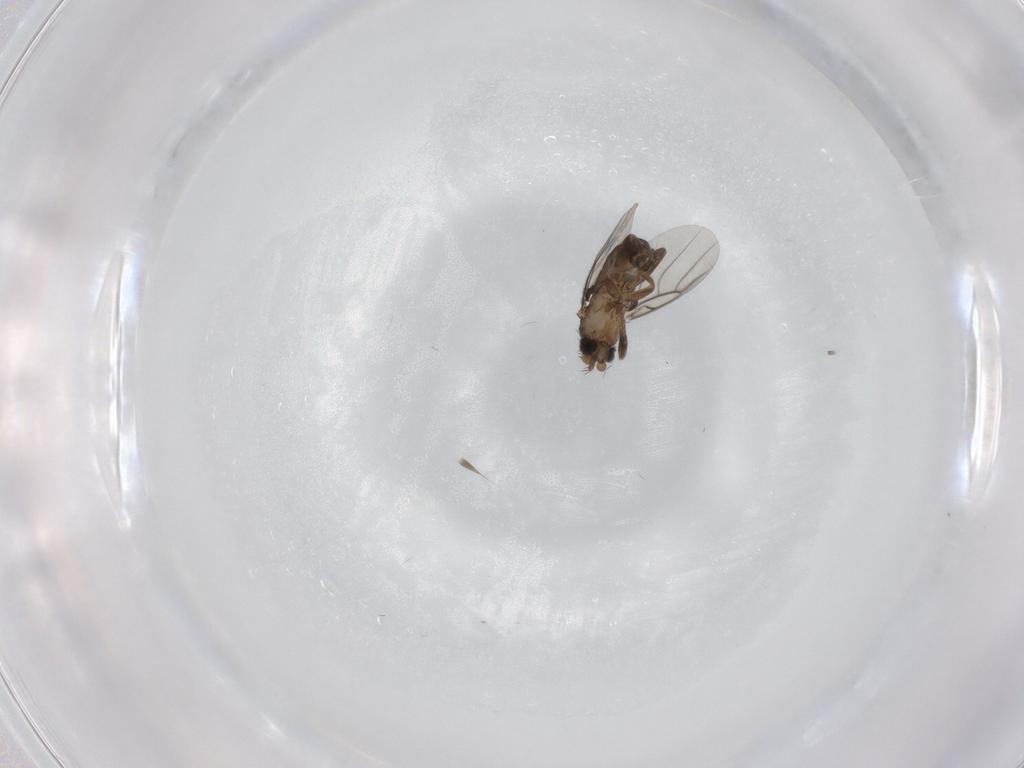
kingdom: Animalia
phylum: Arthropoda
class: Insecta
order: Diptera
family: Phoridae
